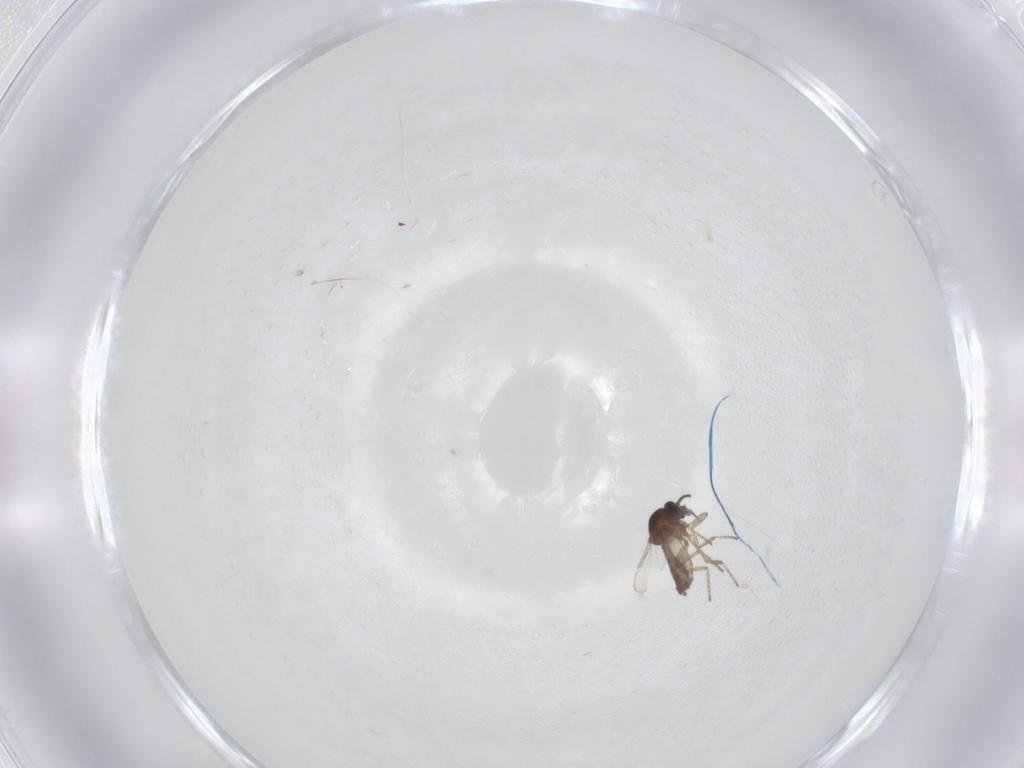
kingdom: Animalia
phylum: Arthropoda
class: Insecta
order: Diptera
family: Ceratopogonidae
